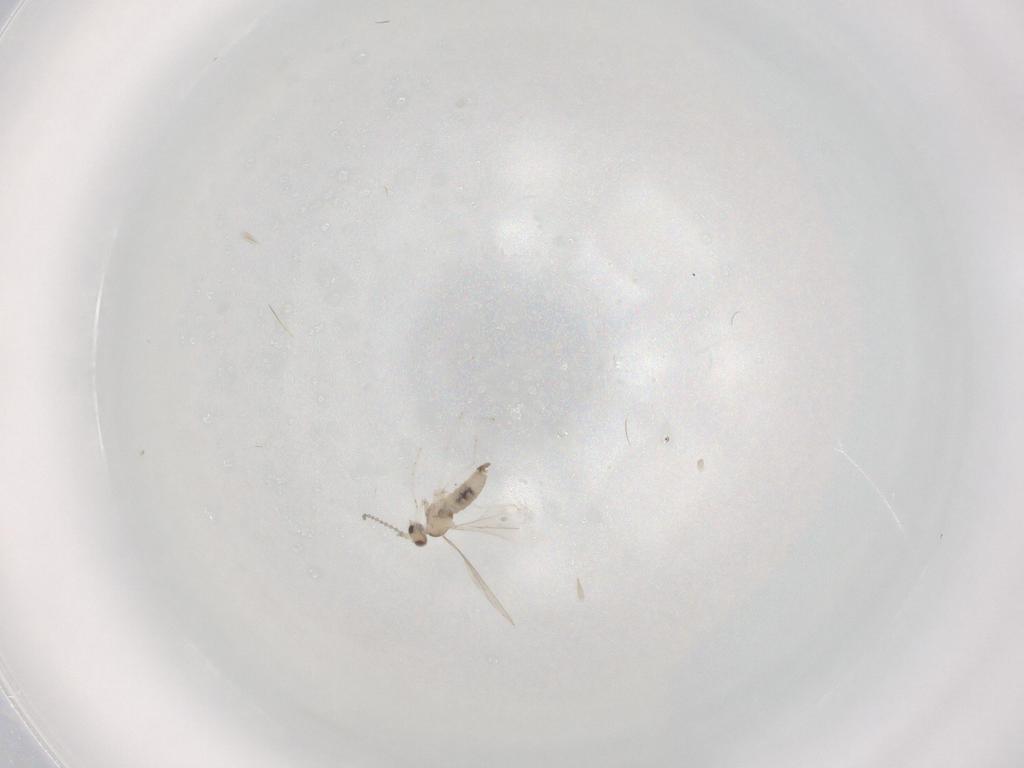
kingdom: Animalia
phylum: Arthropoda
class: Insecta
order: Diptera
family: Cecidomyiidae
